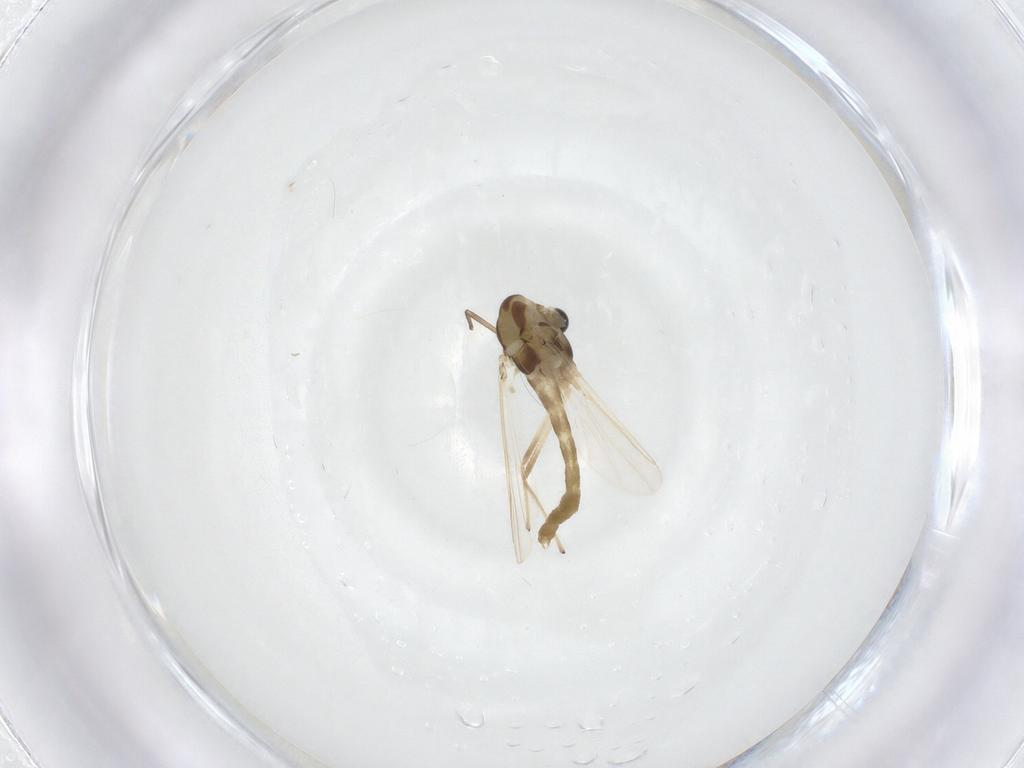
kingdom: Animalia
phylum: Arthropoda
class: Insecta
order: Diptera
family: Chironomidae
